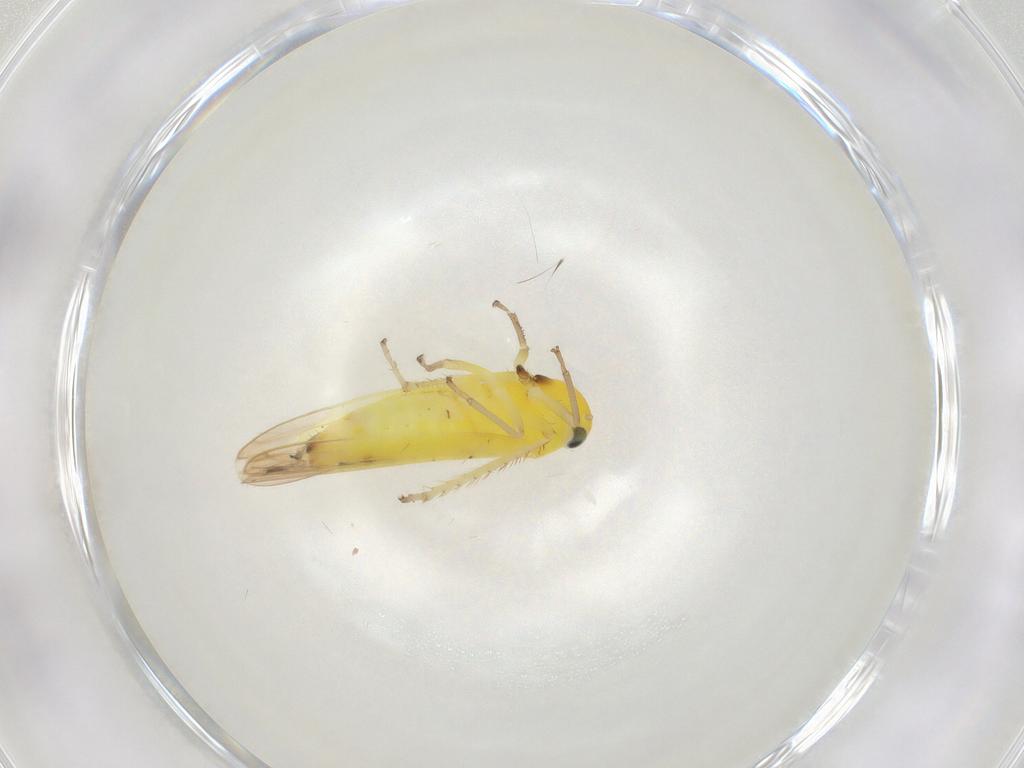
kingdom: Animalia
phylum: Arthropoda
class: Insecta
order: Hemiptera
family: Cicadellidae
